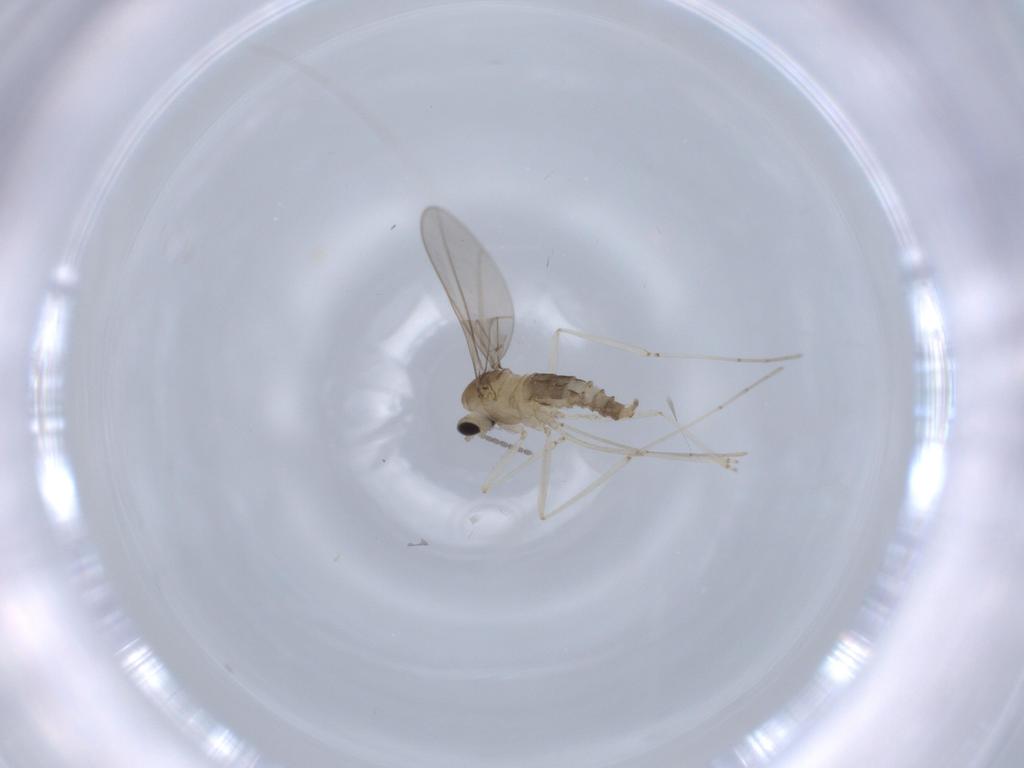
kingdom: Animalia
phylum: Arthropoda
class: Insecta
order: Diptera
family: Cecidomyiidae
